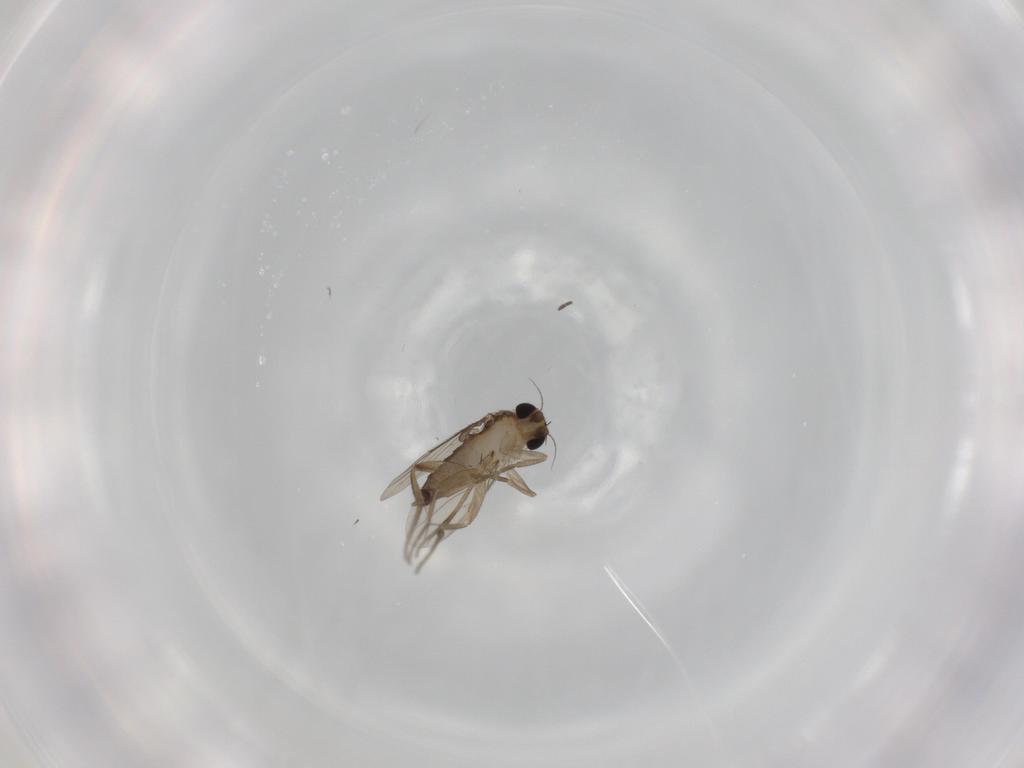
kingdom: Animalia
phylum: Arthropoda
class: Insecta
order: Diptera
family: Sciaridae
